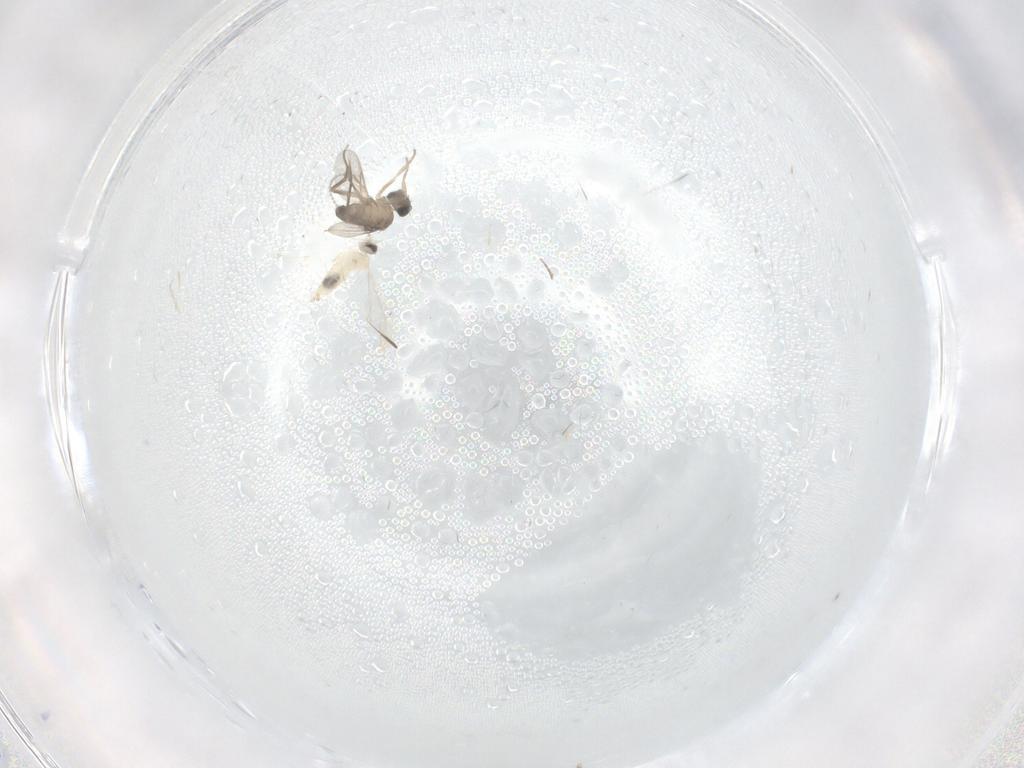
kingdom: Animalia
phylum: Arthropoda
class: Insecta
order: Diptera
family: Phoridae
